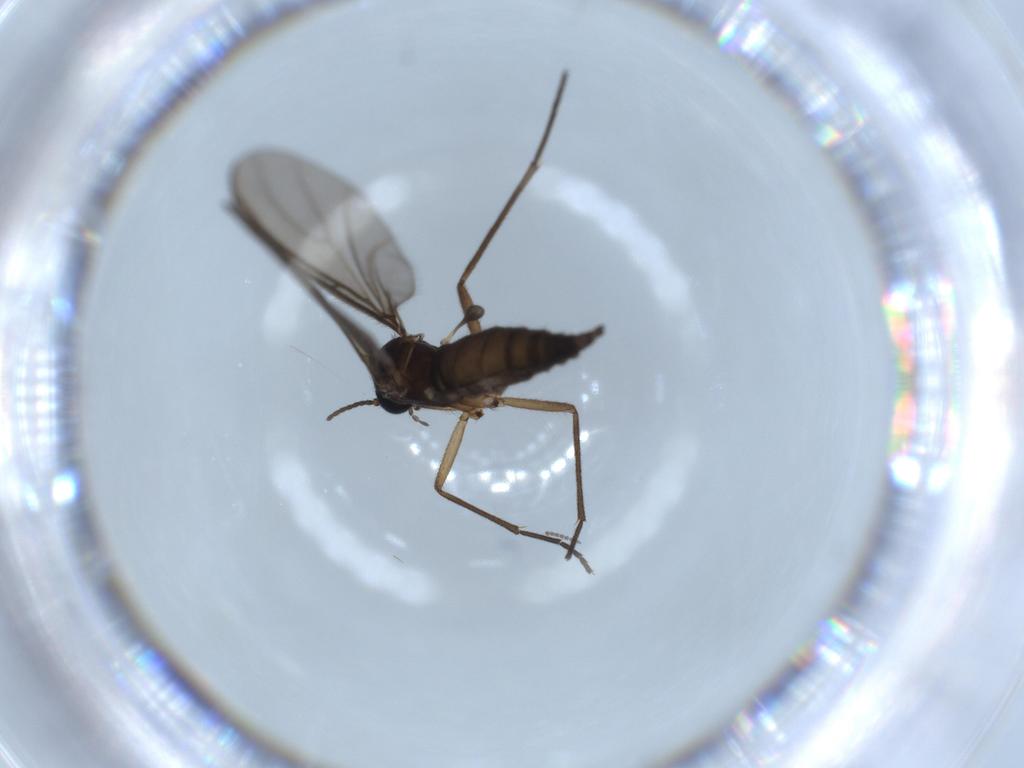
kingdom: Animalia
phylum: Arthropoda
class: Insecta
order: Diptera
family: Sciaridae
